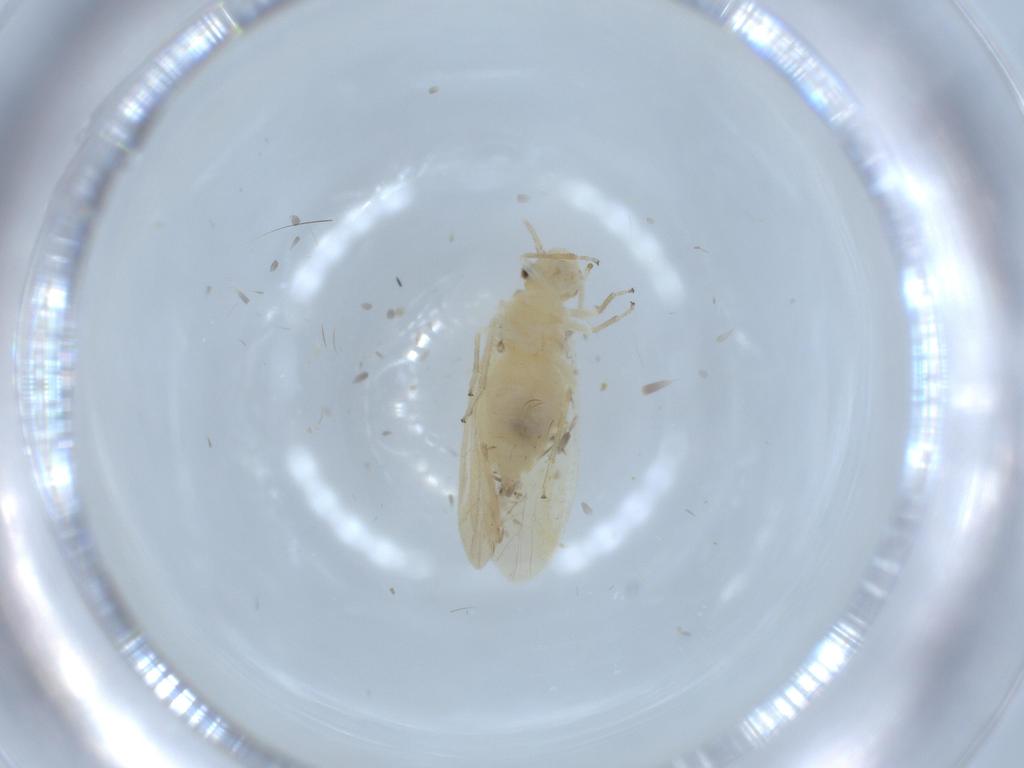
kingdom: Animalia
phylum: Arthropoda
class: Insecta
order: Psocodea
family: Caeciliusidae
